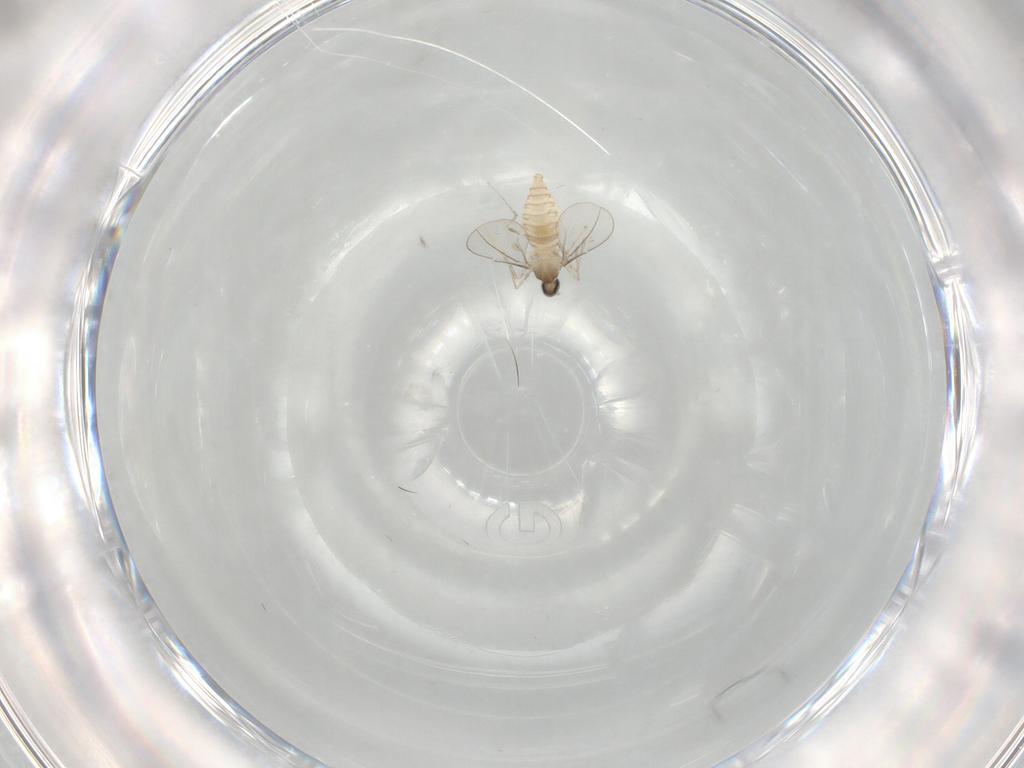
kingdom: Animalia
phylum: Arthropoda
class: Insecta
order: Diptera
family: Cecidomyiidae
